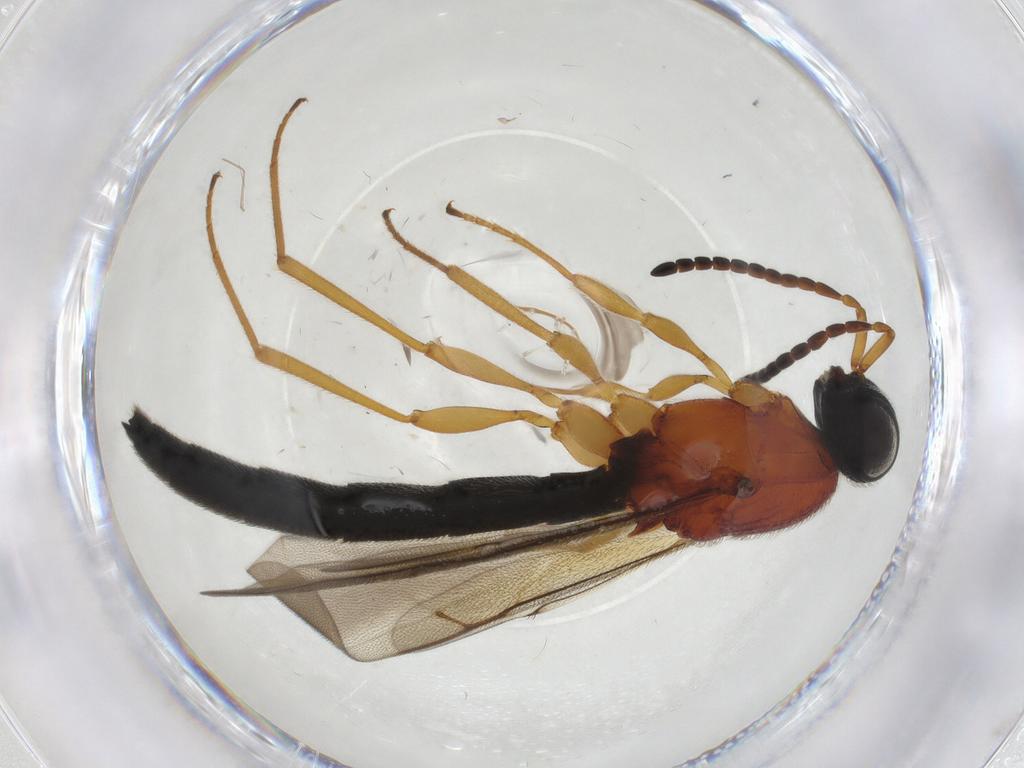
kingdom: Animalia
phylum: Arthropoda
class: Insecta
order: Hymenoptera
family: Scelionidae
